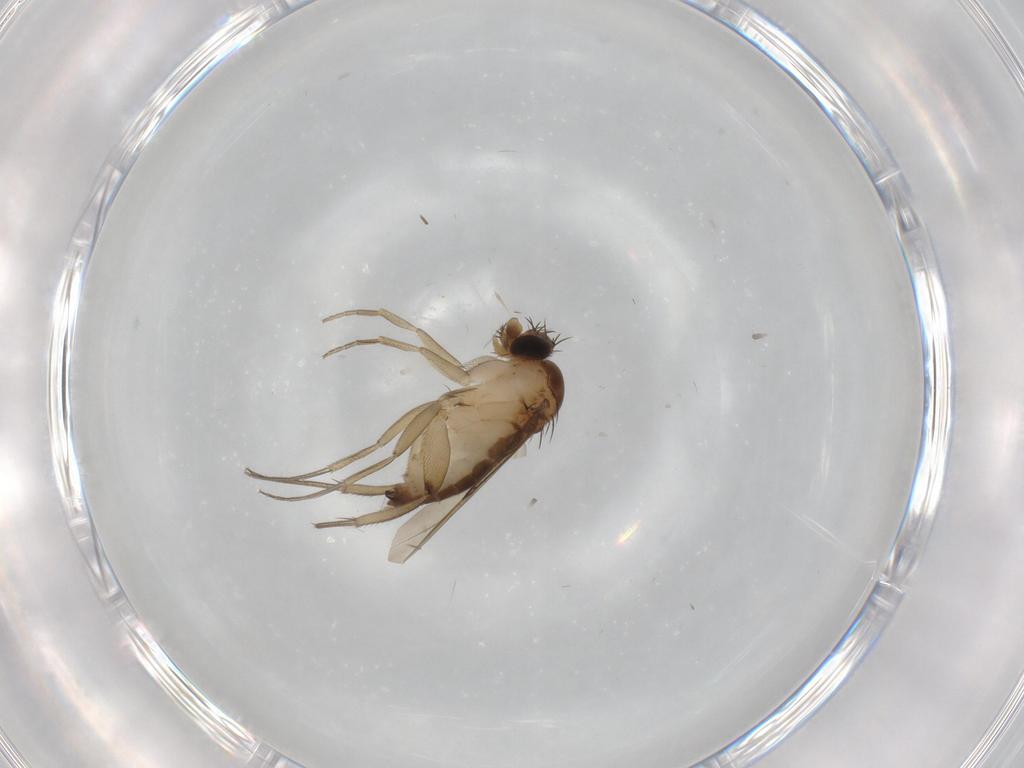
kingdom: Animalia
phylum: Arthropoda
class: Insecta
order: Diptera
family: Phoridae
